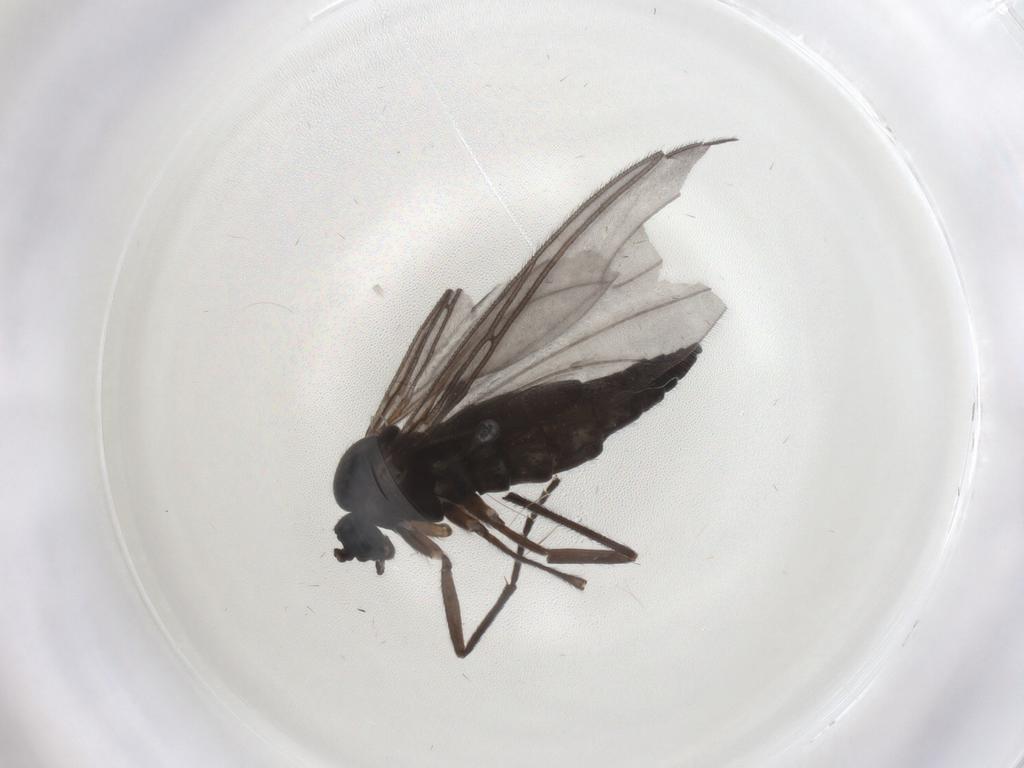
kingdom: Animalia
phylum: Arthropoda
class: Insecta
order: Diptera
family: Sciaridae
